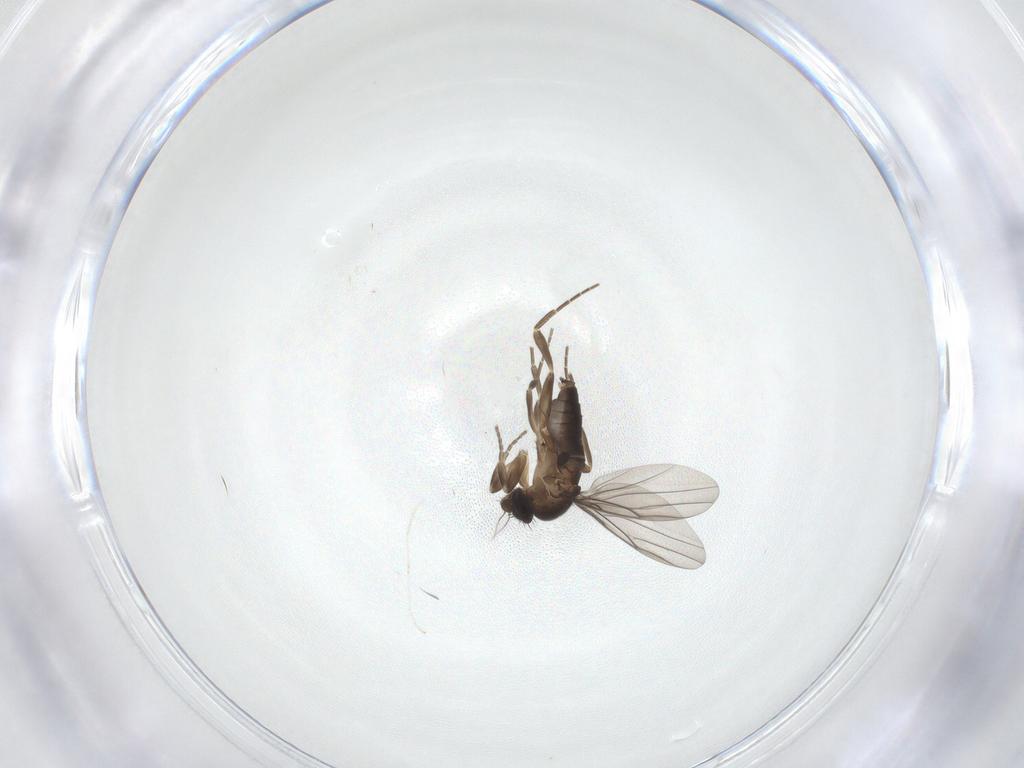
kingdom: Animalia
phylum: Arthropoda
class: Insecta
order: Diptera
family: Phoridae
